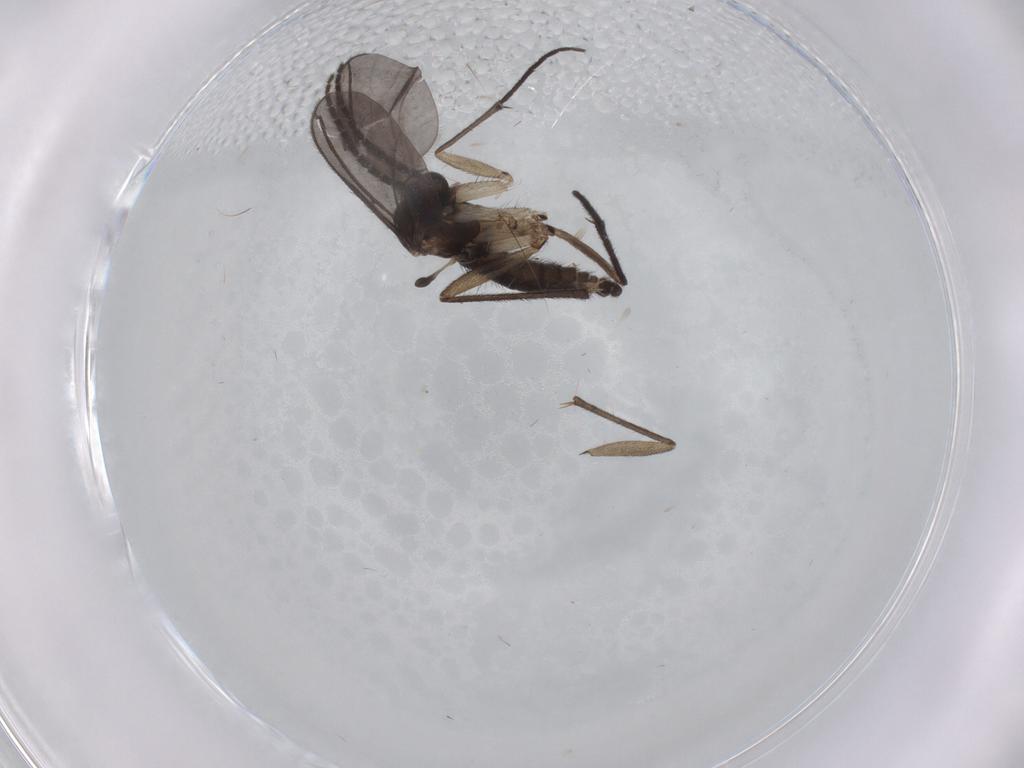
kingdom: Animalia
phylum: Arthropoda
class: Insecta
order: Diptera
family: Sciaridae
